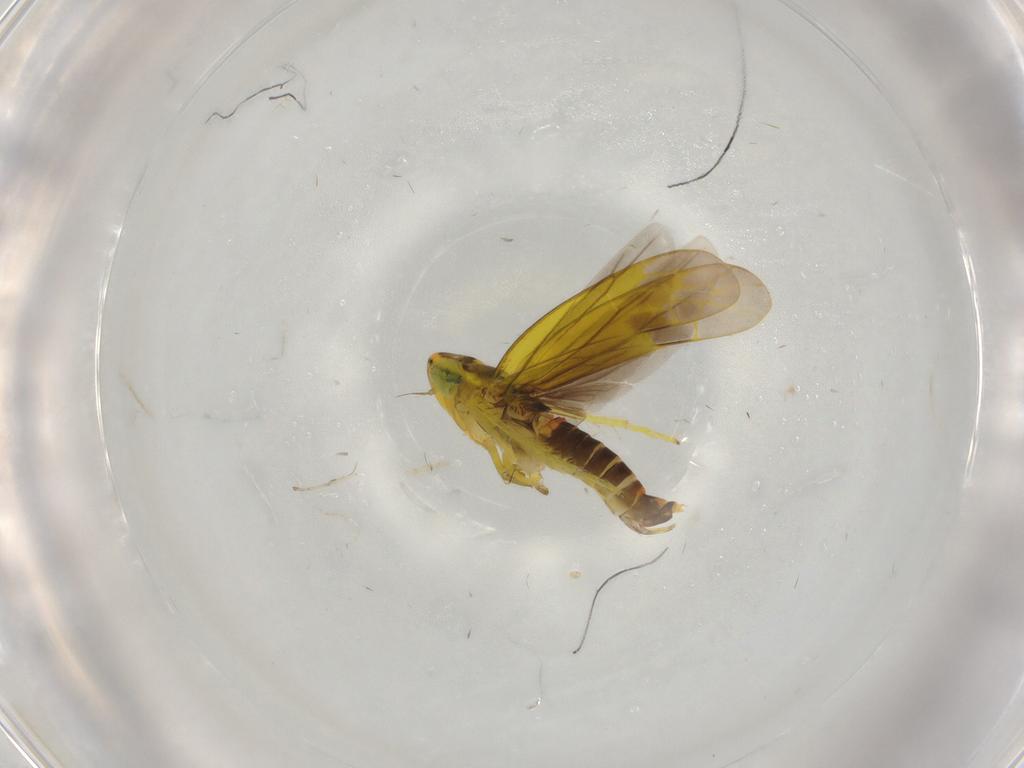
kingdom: Animalia
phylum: Arthropoda
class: Insecta
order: Hemiptera
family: Cicadellidae
